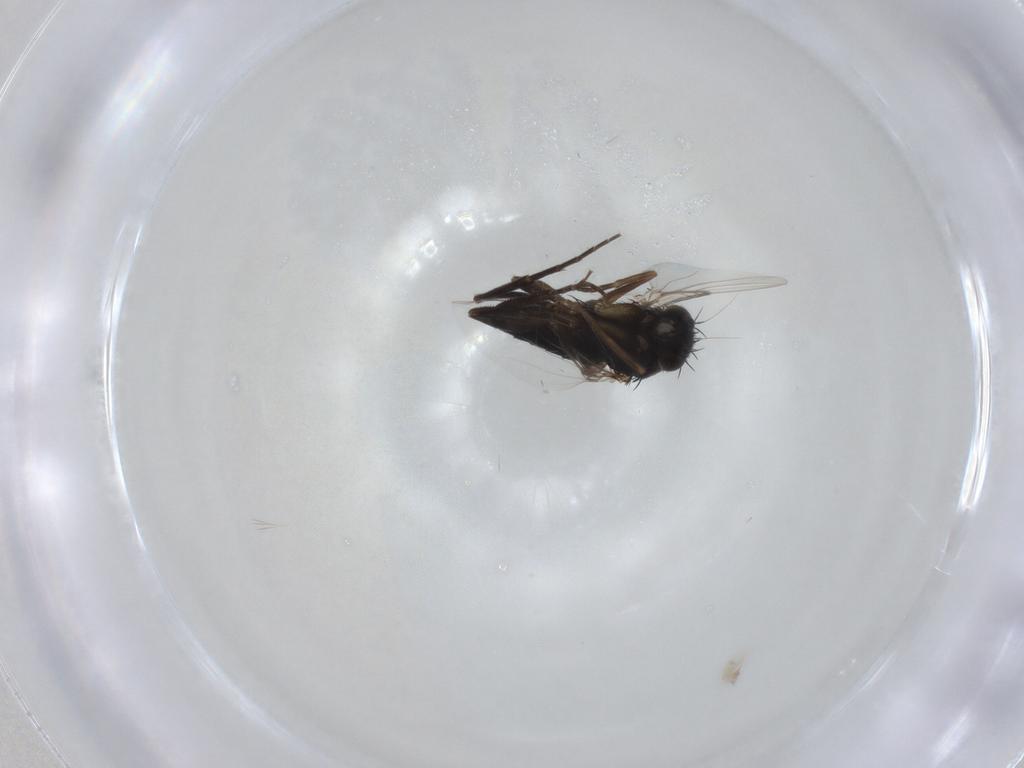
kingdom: Animalia
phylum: Arthropoda
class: Insecta
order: Diptera
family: Phoridae
